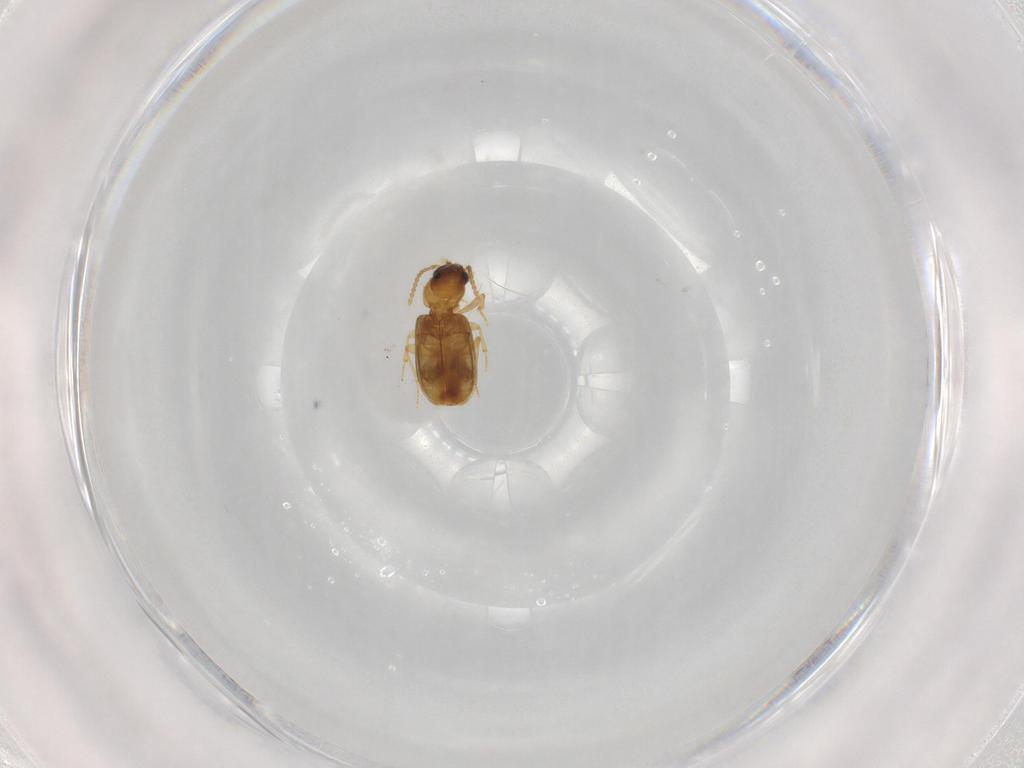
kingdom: Animalia
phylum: Arthropoda
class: Insecta
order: Coleoptera
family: Carabidae
